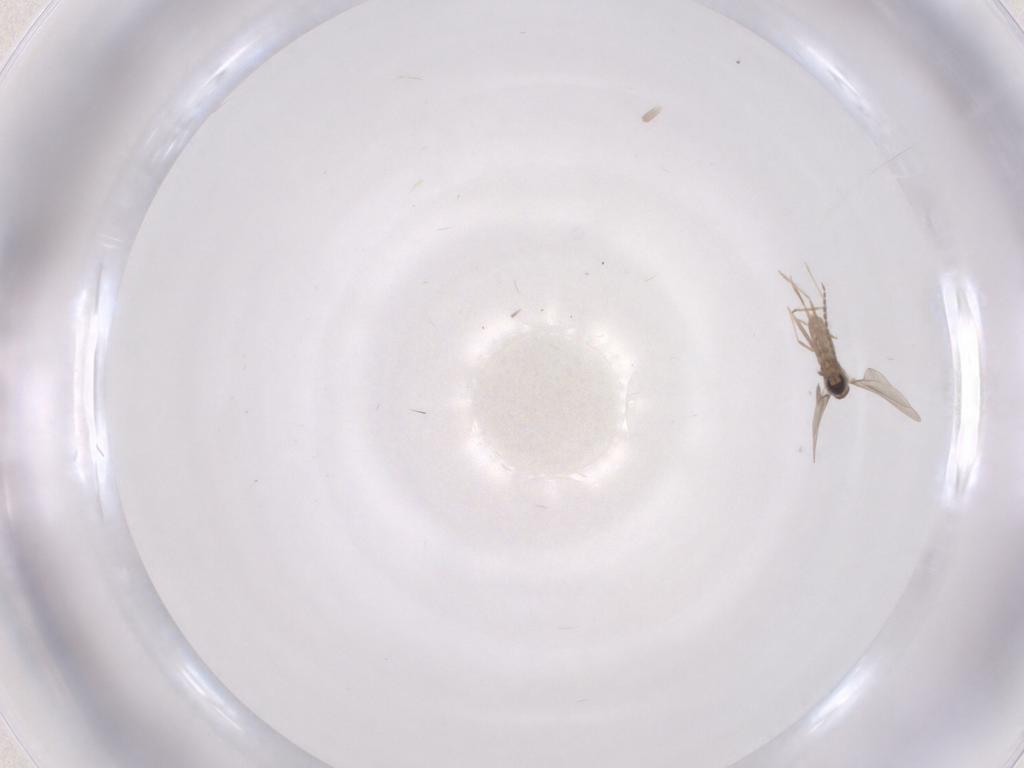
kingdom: Animalia
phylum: Arthropoda
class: Insecta
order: Diptera
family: Cecidomyiidae
